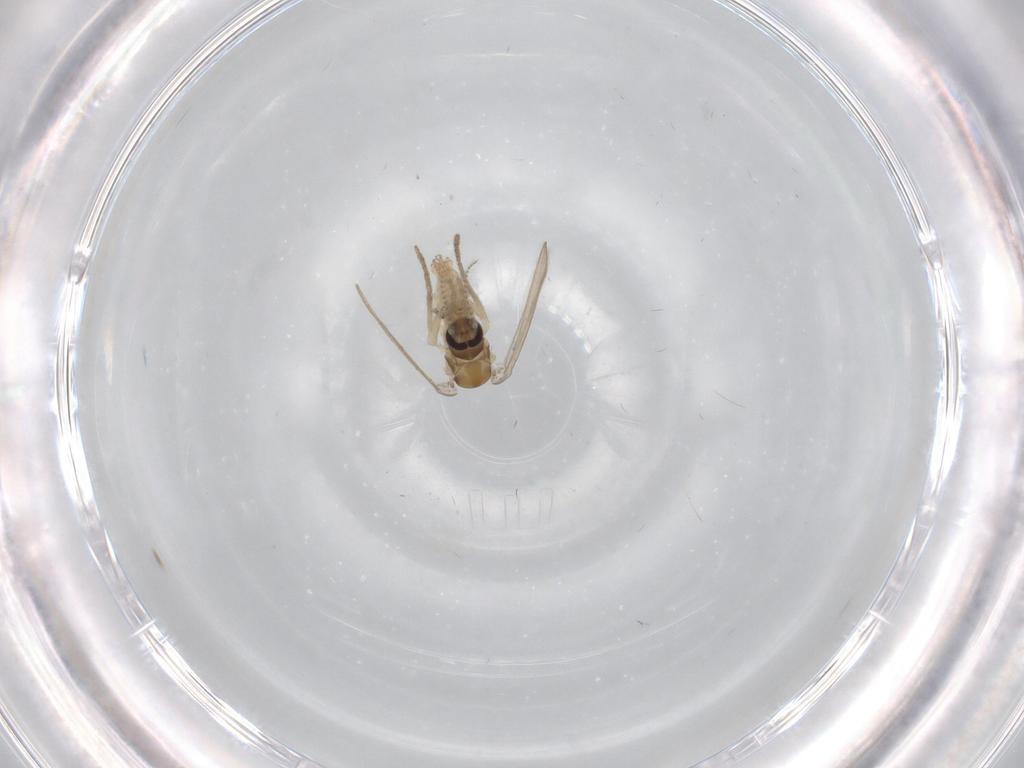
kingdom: Animalia
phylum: Arthropoda
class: Insecta
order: Diptera
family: Psychodidae
